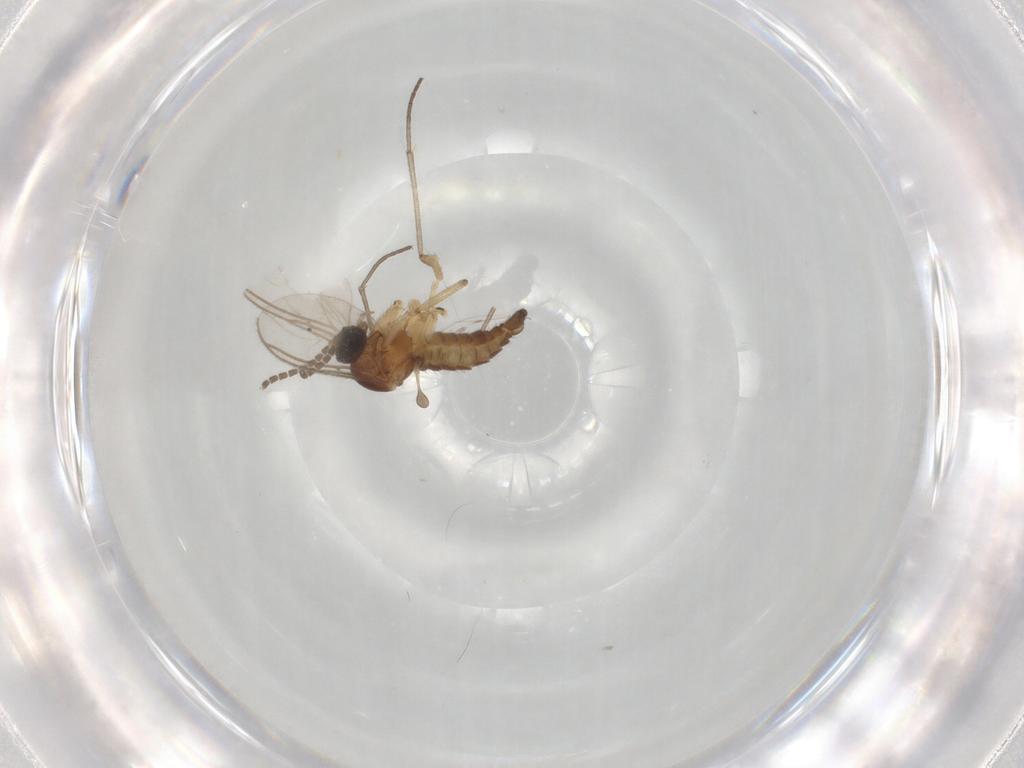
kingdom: Animalia
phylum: Arthropoda
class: Insecta
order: Diptera
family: Sciaridae
